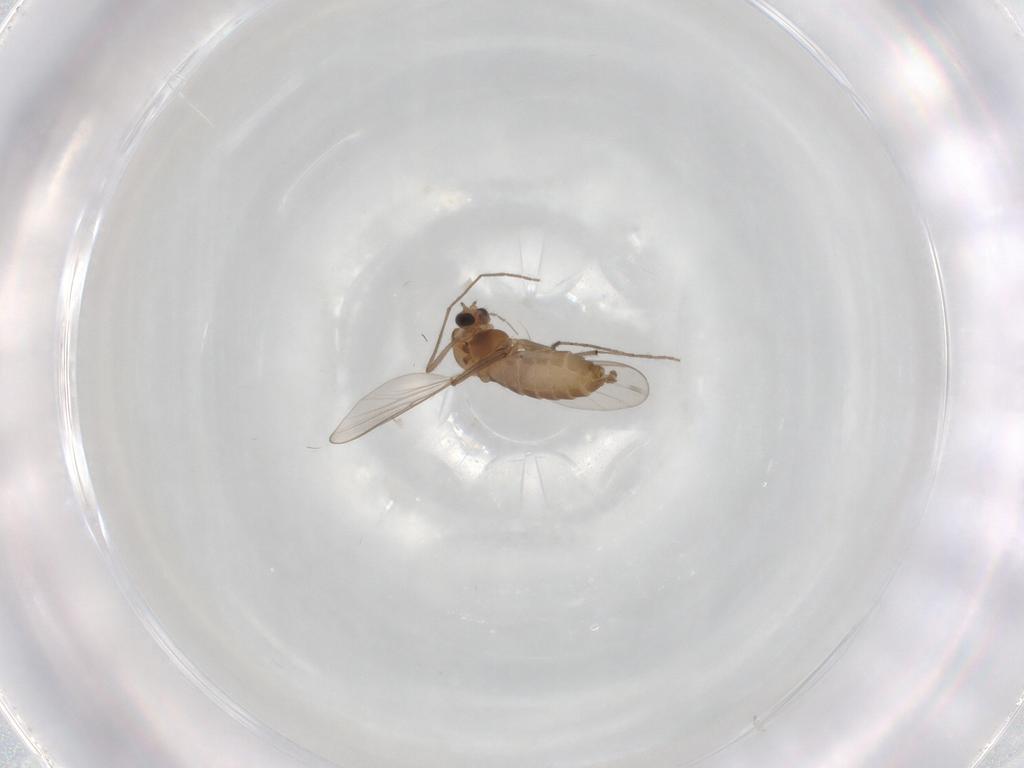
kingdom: Animalia
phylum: Arthropoda
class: Insecta
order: Diptera
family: Chironomidae
